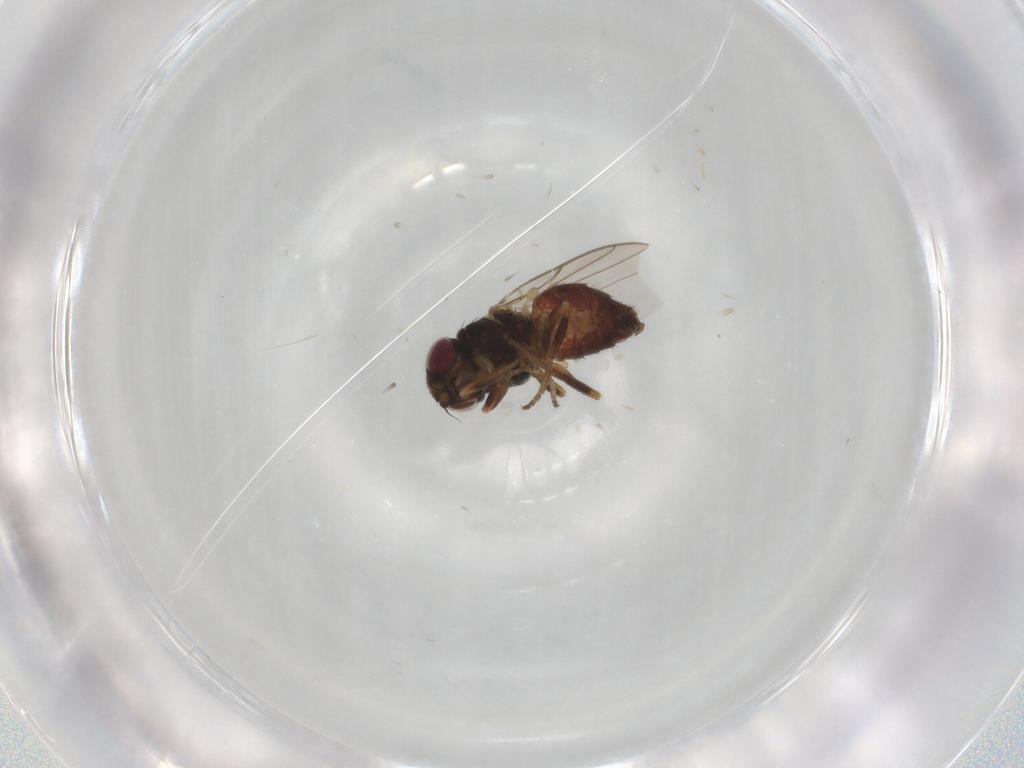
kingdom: Animalia
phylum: Arthropoda
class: Insecta
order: Diptera
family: Chloropidae
